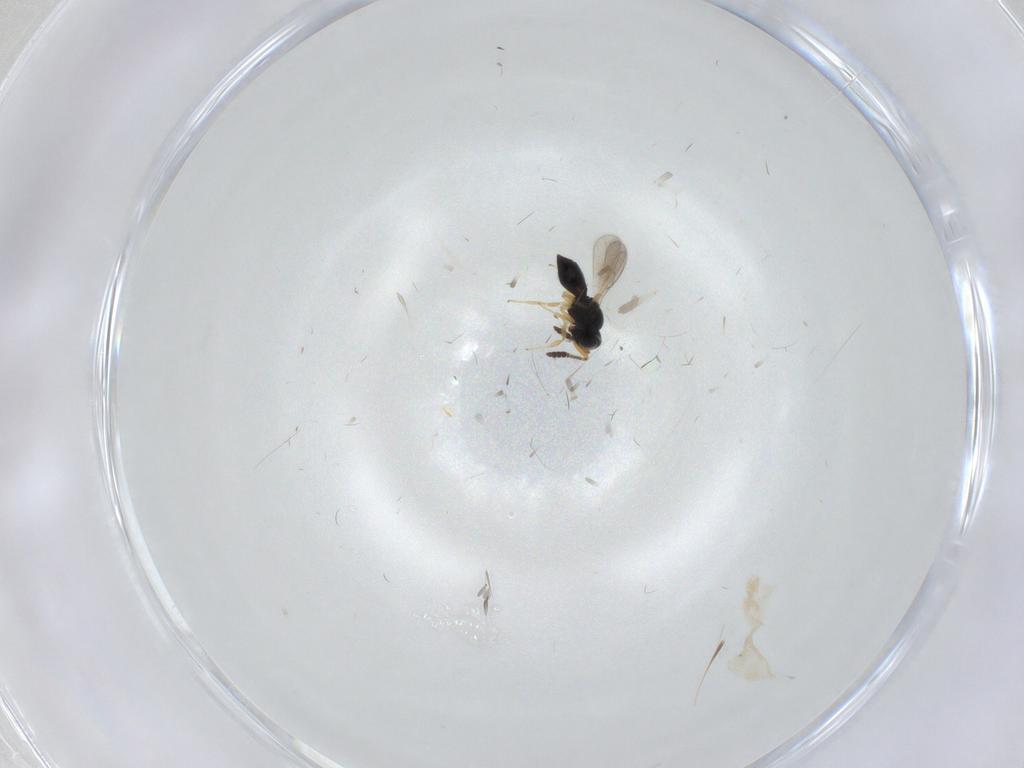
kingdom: Animalia
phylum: Arthropoda
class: Insecta
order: Hymenoptera
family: Scelionidae
